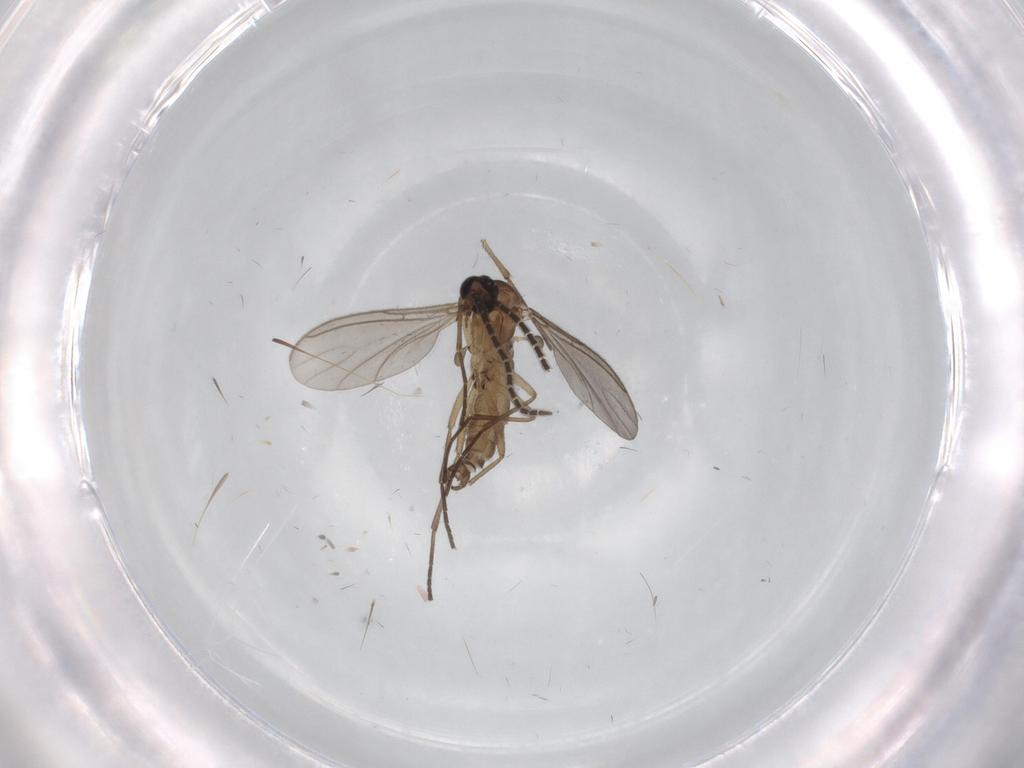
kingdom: Animalia
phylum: Arthropoda
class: Insecta
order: Diptera
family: Sciaridae
